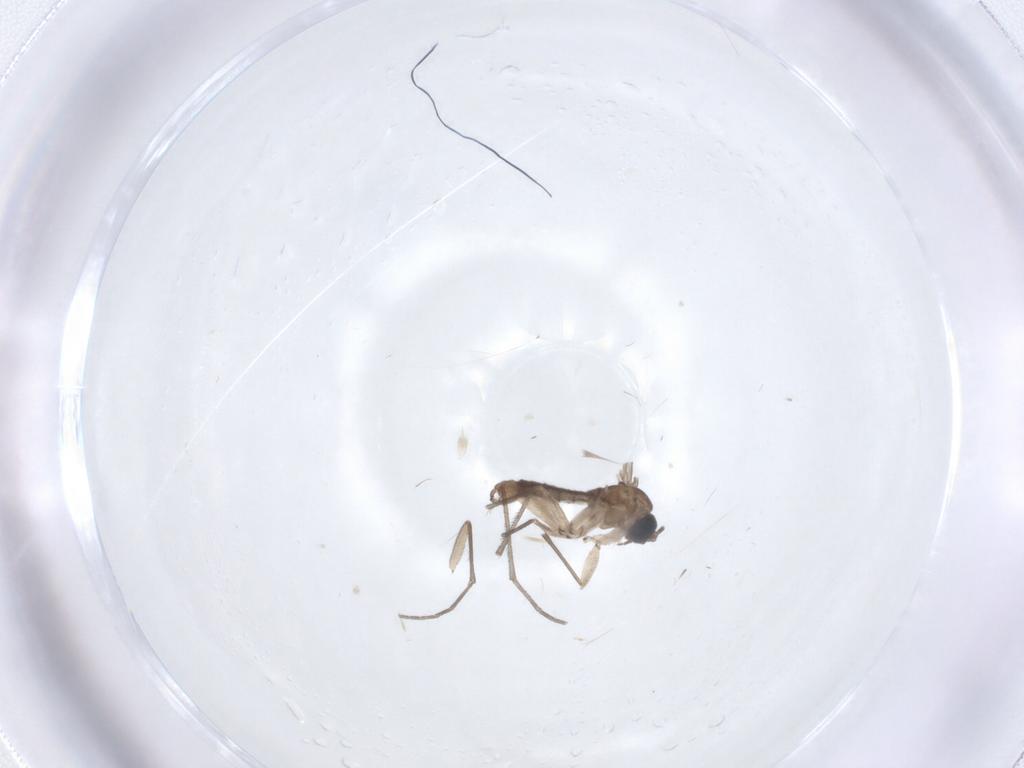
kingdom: Animalia
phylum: Arthropoda
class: Insecta
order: Diptera
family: Sciaridae
